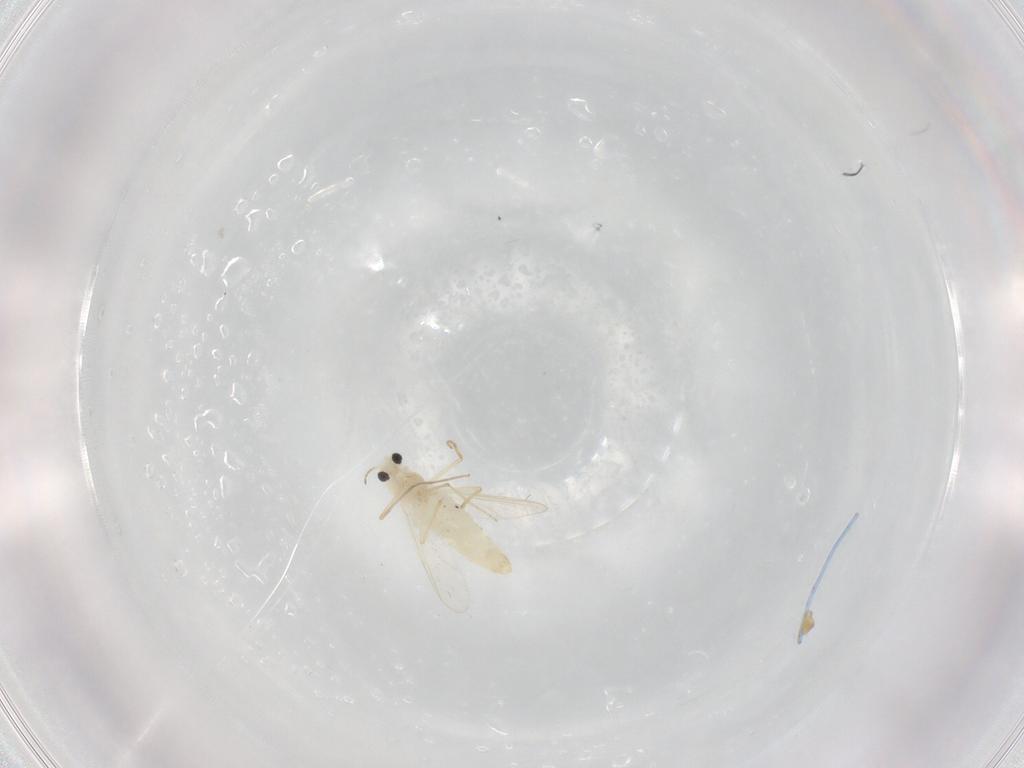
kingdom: Animalia
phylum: Arthropoda
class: Insecta
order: Diptera
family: Chironomidae
